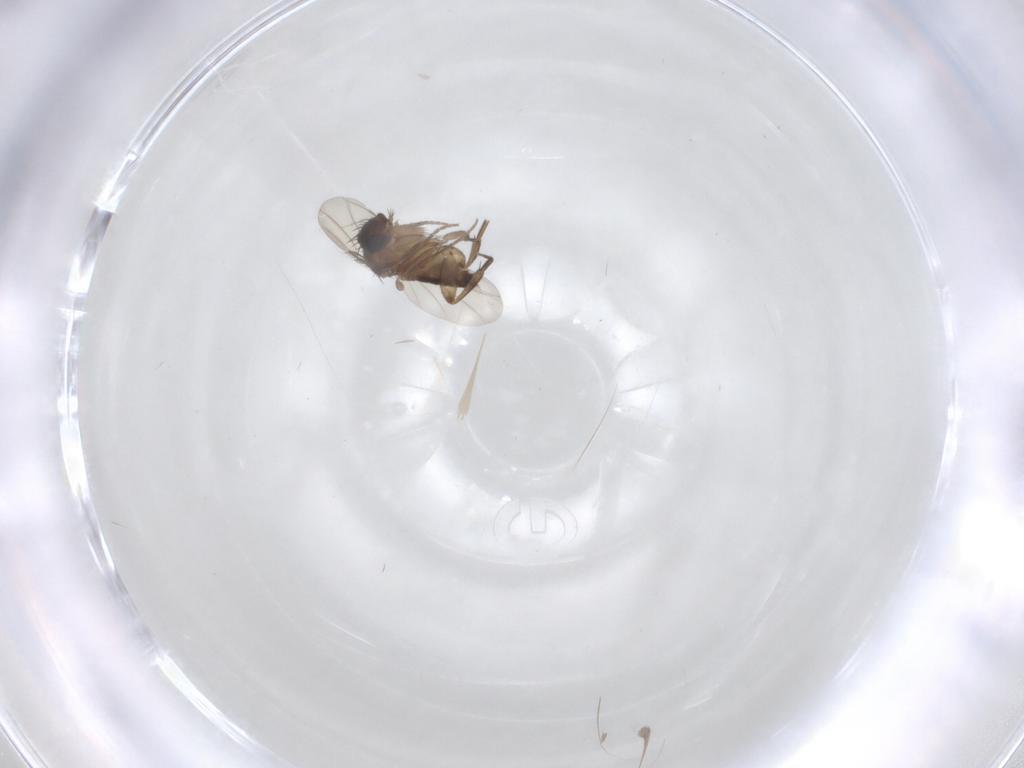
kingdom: Animalia
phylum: Arthropoda
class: Insecta
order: Diptera
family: Phoridae
